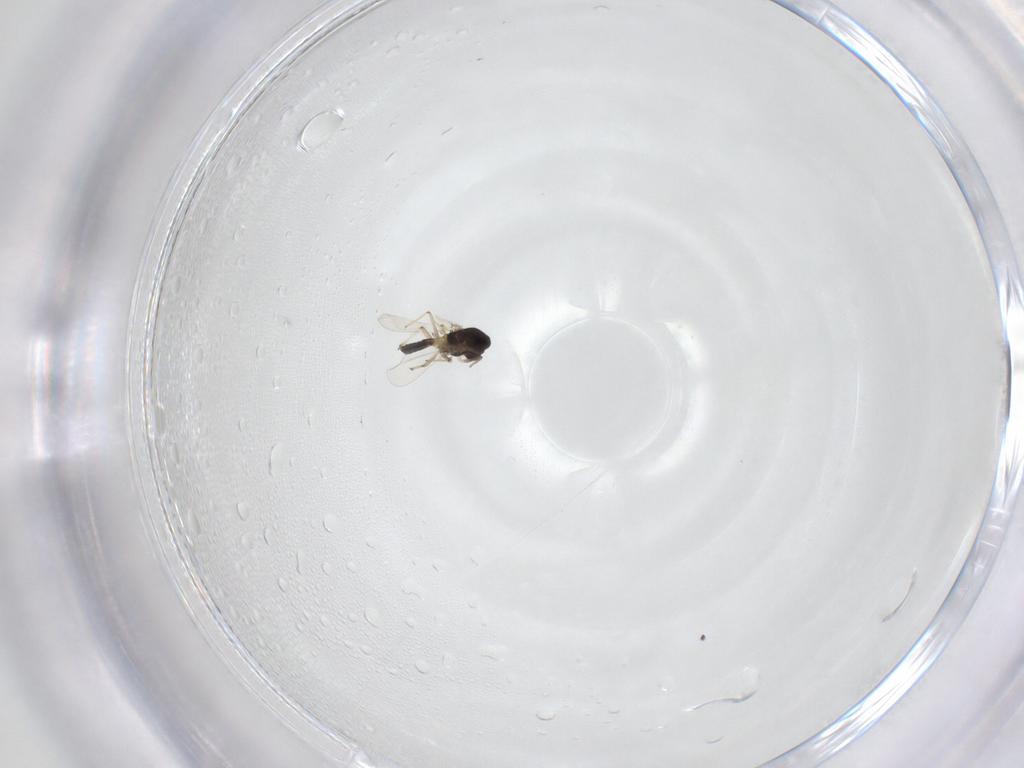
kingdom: Animalia
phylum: Arthropoda
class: Insecta
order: Diptera
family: Chironomidae
